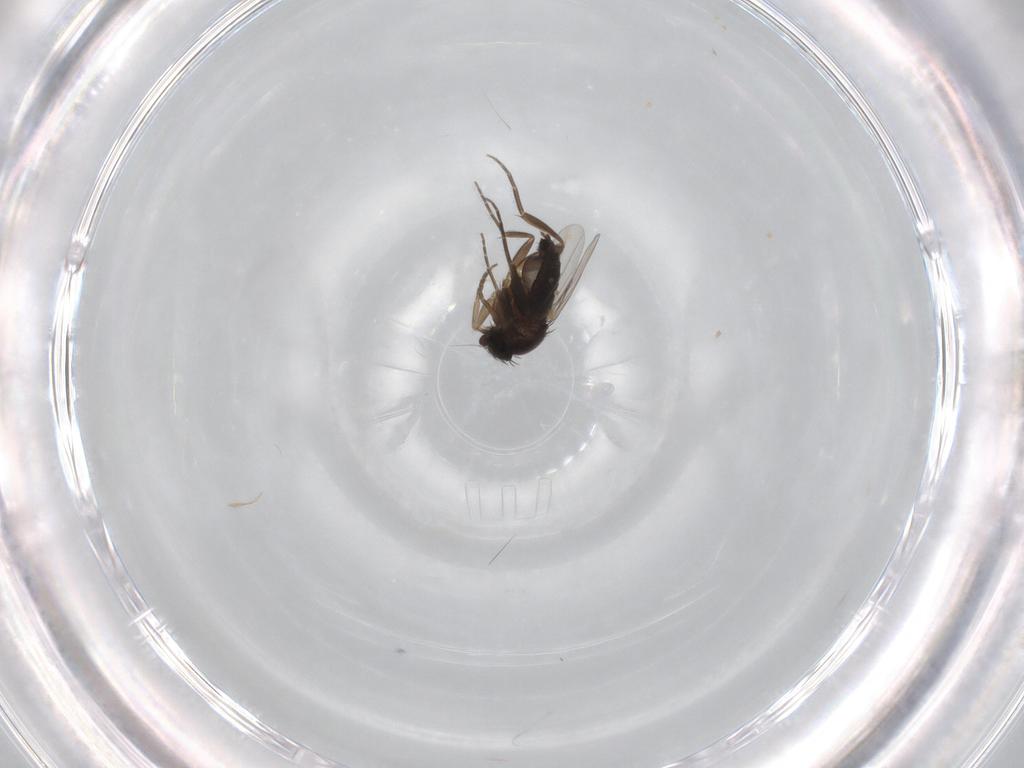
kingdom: Animalia
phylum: Arthropoda
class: Insecta
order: Diptera
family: Phoridae
